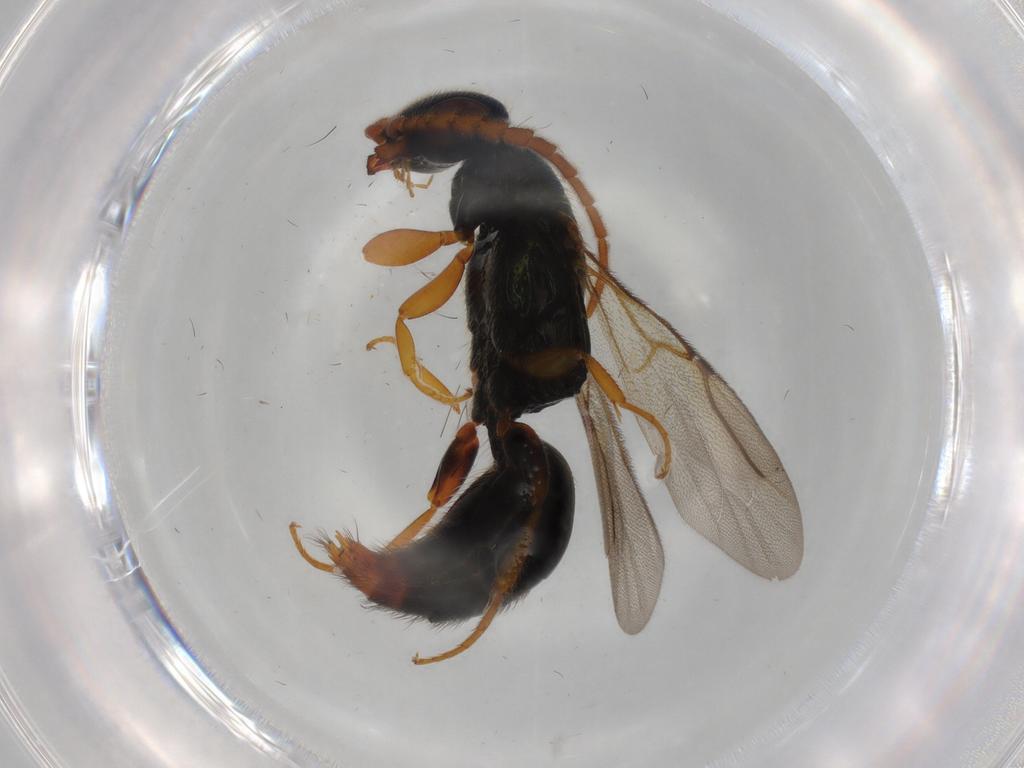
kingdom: Animalia
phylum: Arthropoda
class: Insecta
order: Hymenoptera
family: Bethylidae
